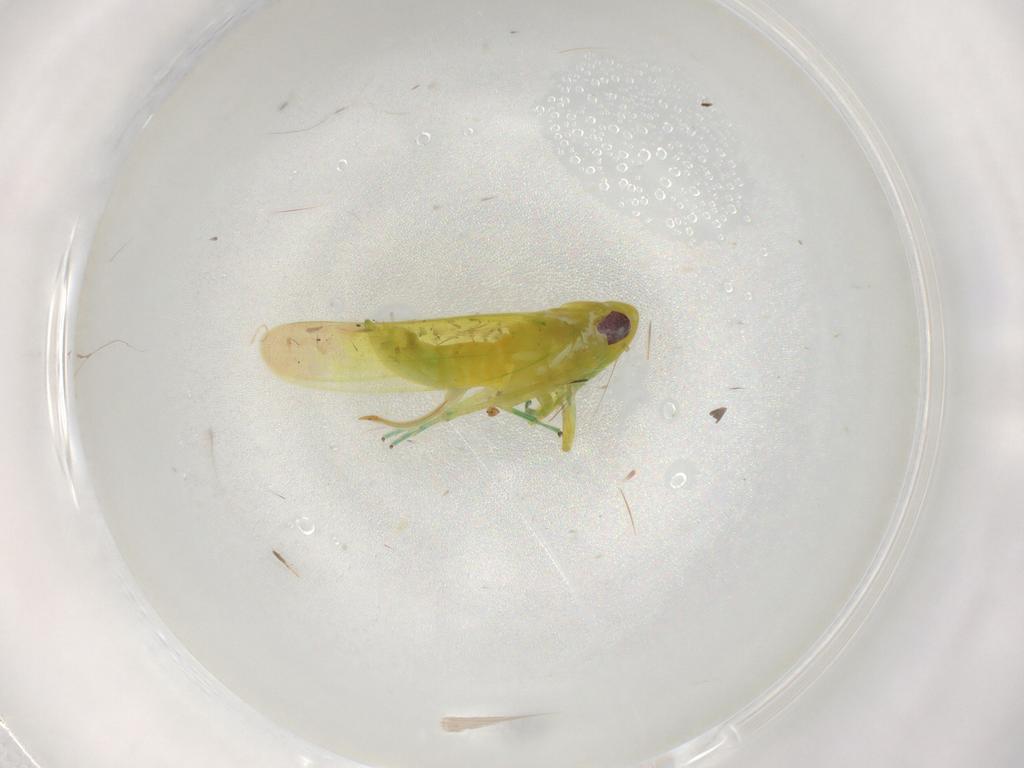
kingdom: Animalia
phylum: Arthropoda
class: Insecta
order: Hemiptera
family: Cicadellidae
